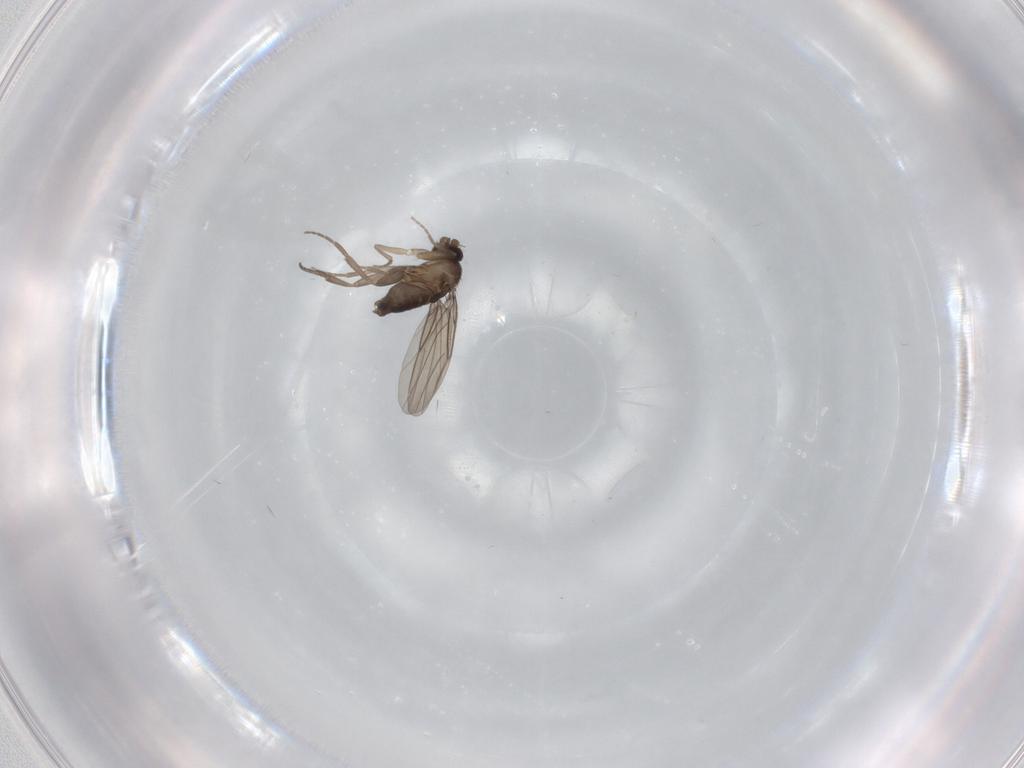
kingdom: Animalia
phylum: Arthropoda
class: Insecta
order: Diptera
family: Phoridae
